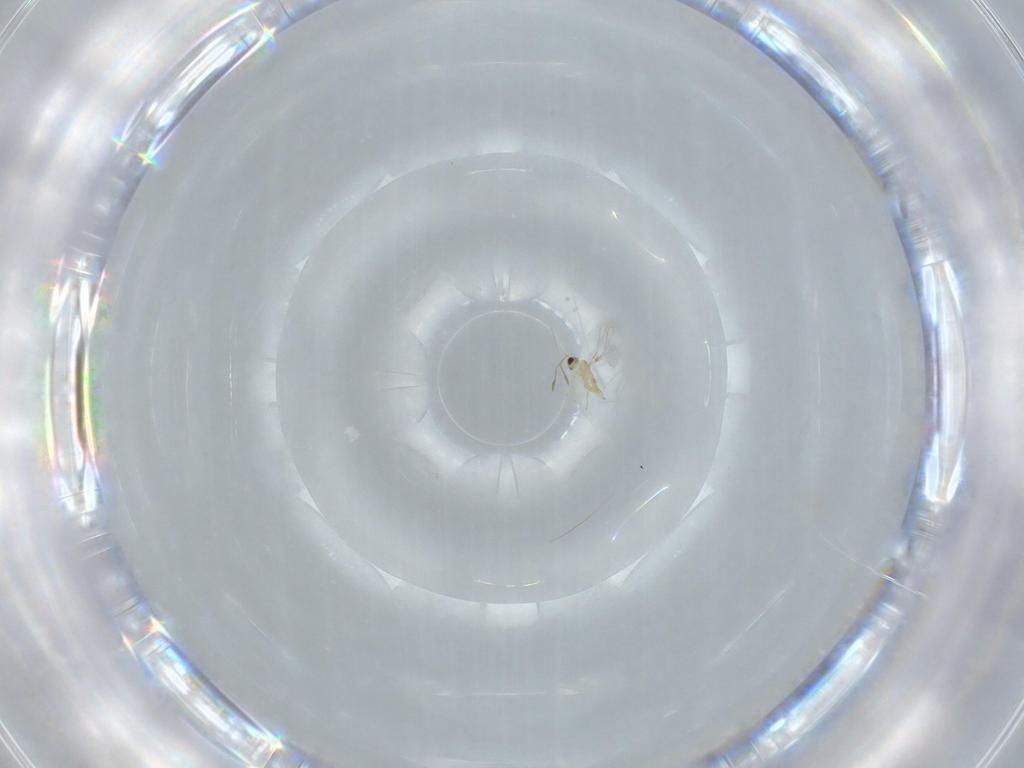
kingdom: Animalia
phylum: Arthropoda
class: Insecta
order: Hymenoptera
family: Mymaridae
